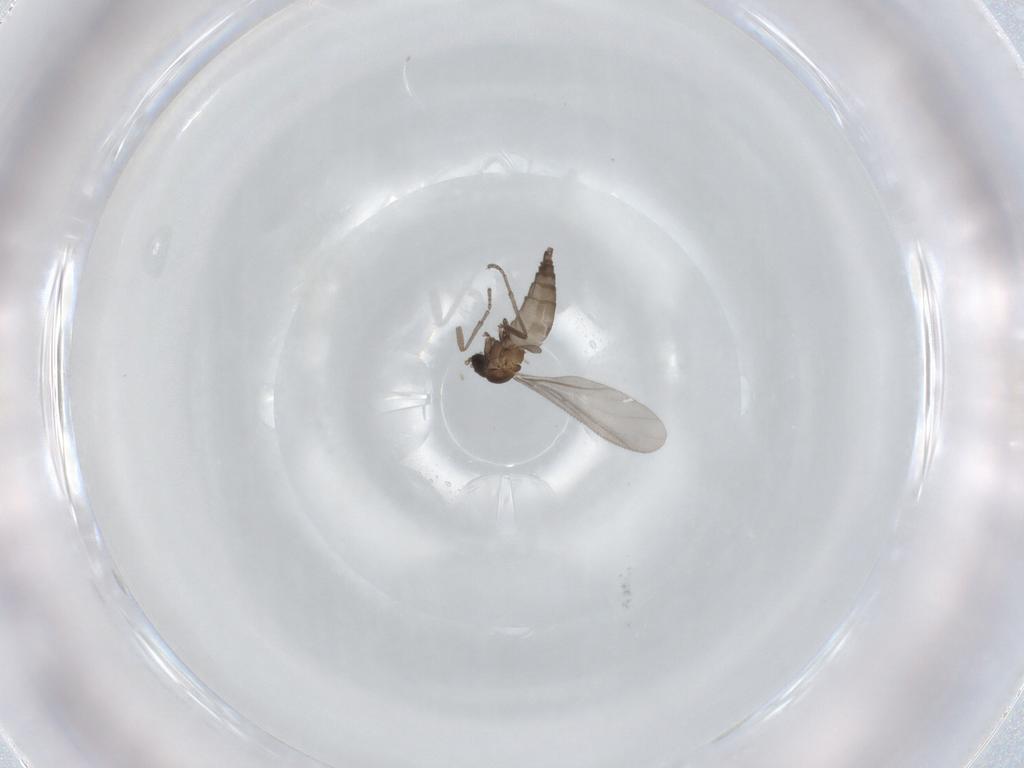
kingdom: Animalia
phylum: Arthropoda
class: Insecta
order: Diptera
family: Sciaridae
